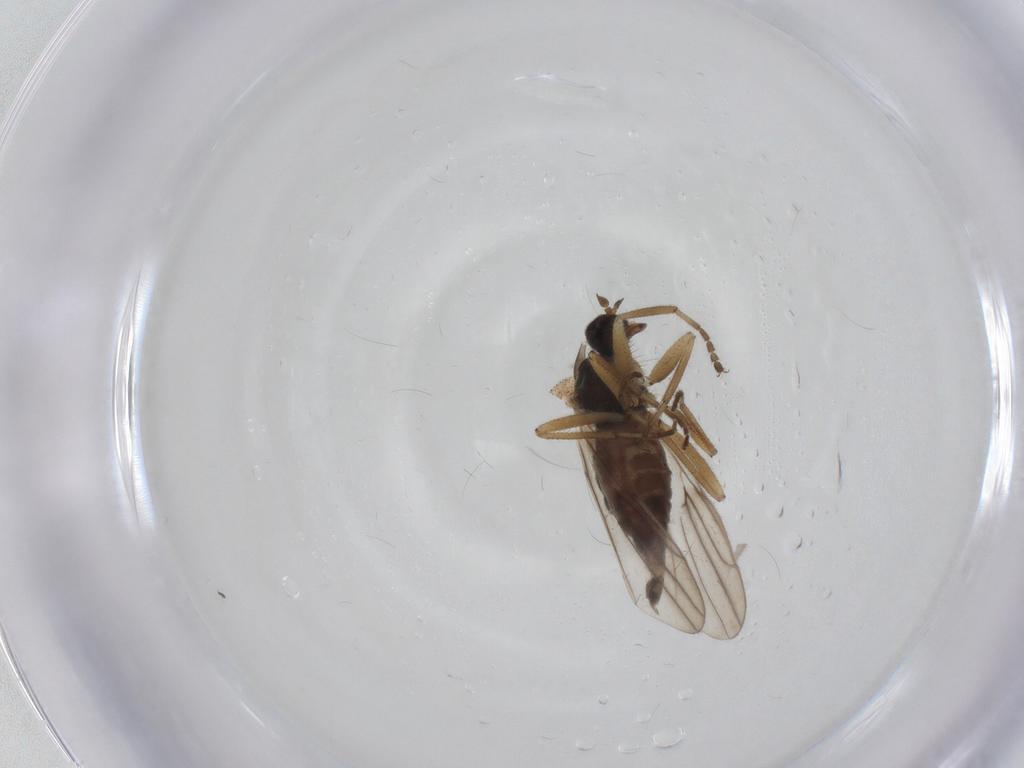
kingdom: Animalia
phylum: Arthropoda
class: Insecta
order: Diptera
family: Hybotidae
